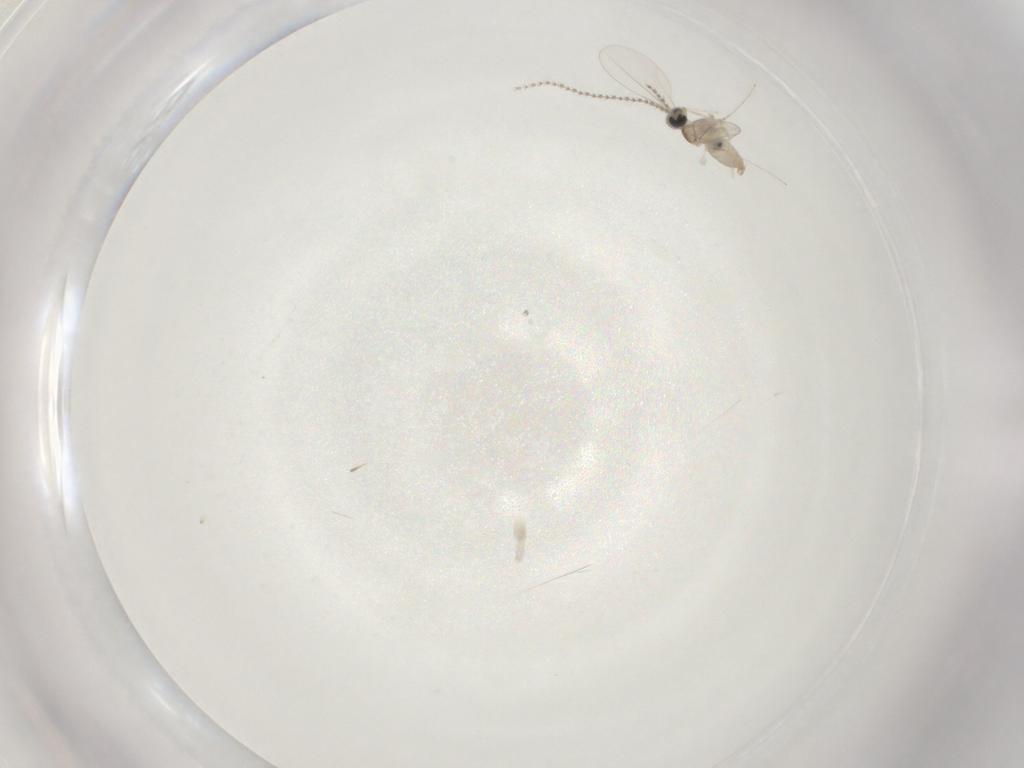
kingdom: Animalia
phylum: Arthropoda
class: Insecta
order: Diptera
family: Cecidomyiidae
